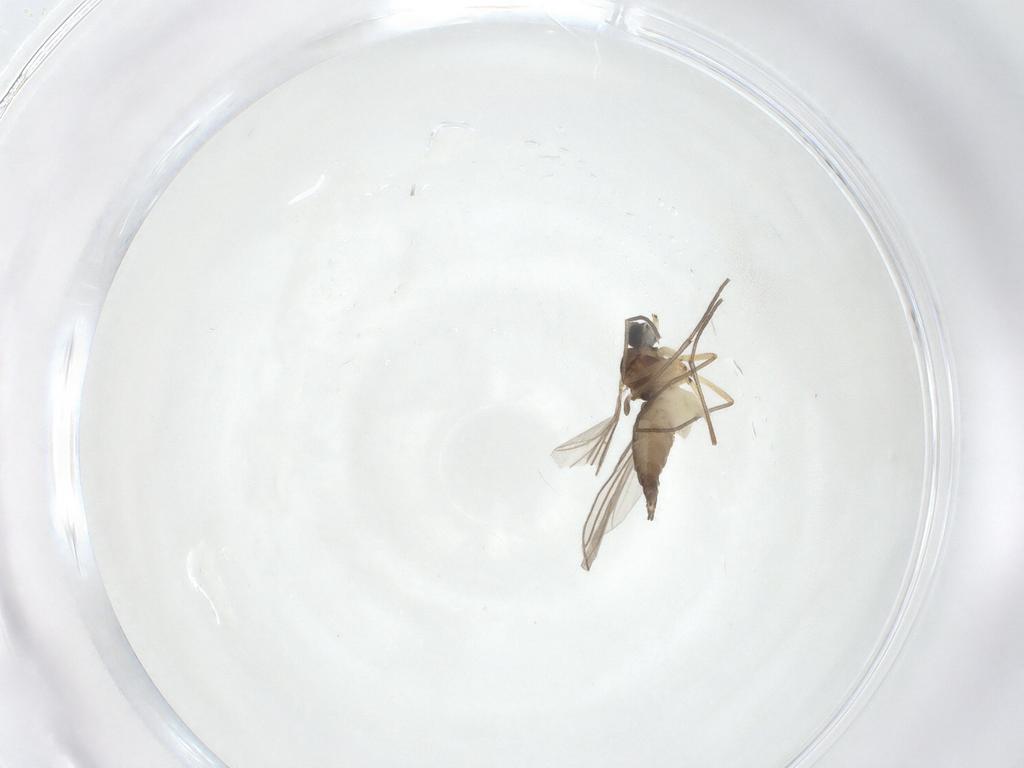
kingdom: Animalia
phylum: Arthropoda
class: Insecta
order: Diptera
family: Sciaridae
